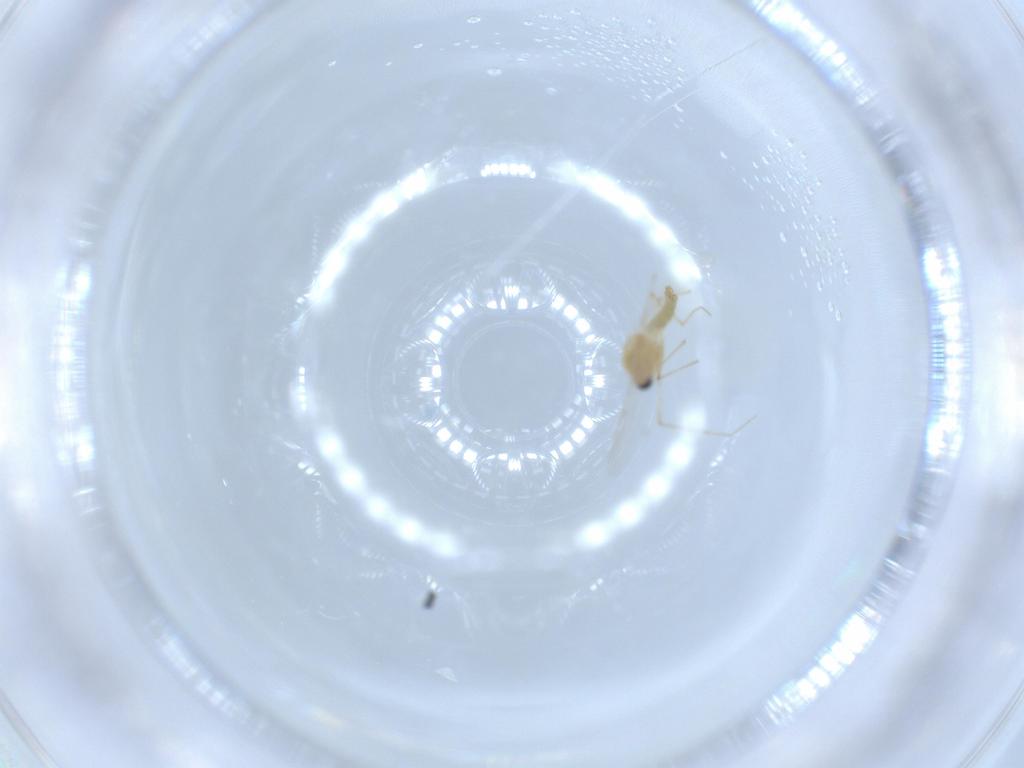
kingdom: Animalia
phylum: Arthropoda
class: Insecta
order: Diptera
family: Chironomidae
